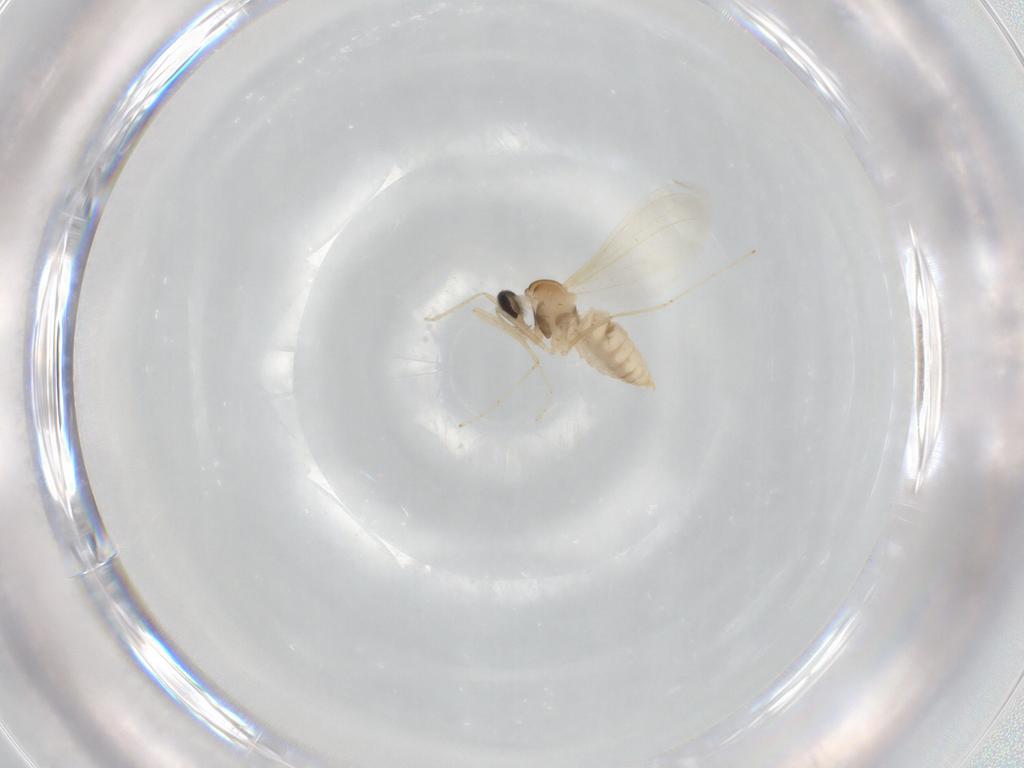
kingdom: Animalia
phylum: Arthropoda
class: Insecta
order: Diptera
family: Cecidomyiidae
